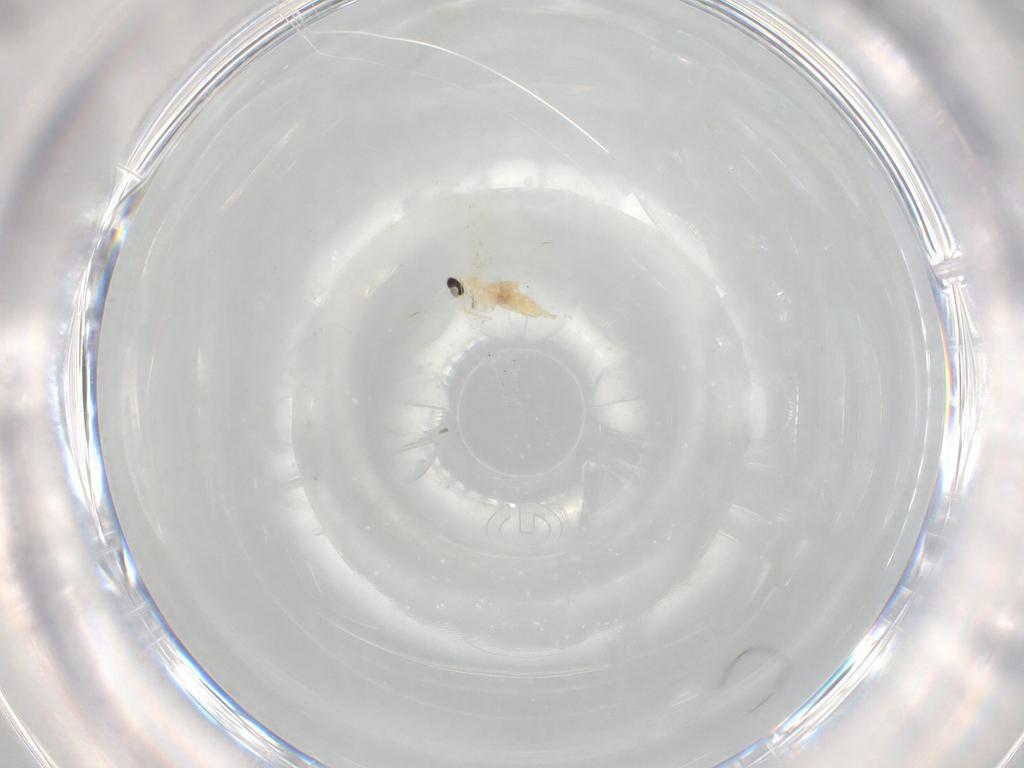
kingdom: Animalia
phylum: Arthropoda
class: Insecta
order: Diptera
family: Cecidomyiidae
